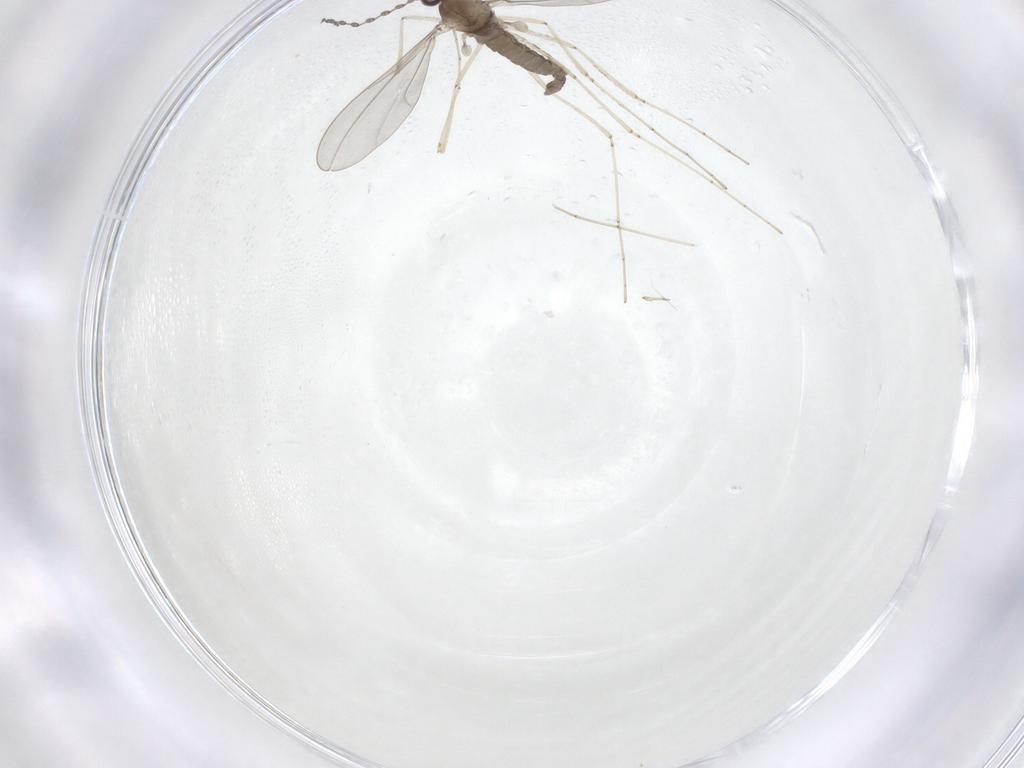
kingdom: Animalia
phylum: Arthropoda
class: Insecta
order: Diptera
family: Cecidomyiidae
